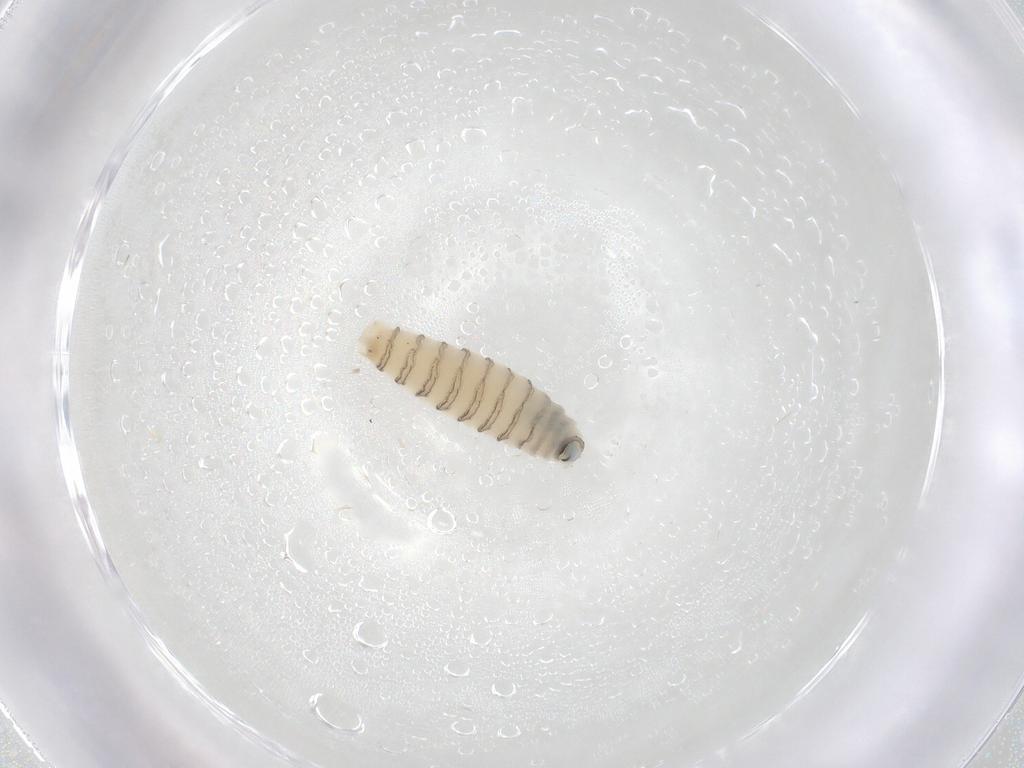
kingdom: Animalia
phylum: Arthropoda
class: Insecta
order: Diptera
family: Sarcophagidae
